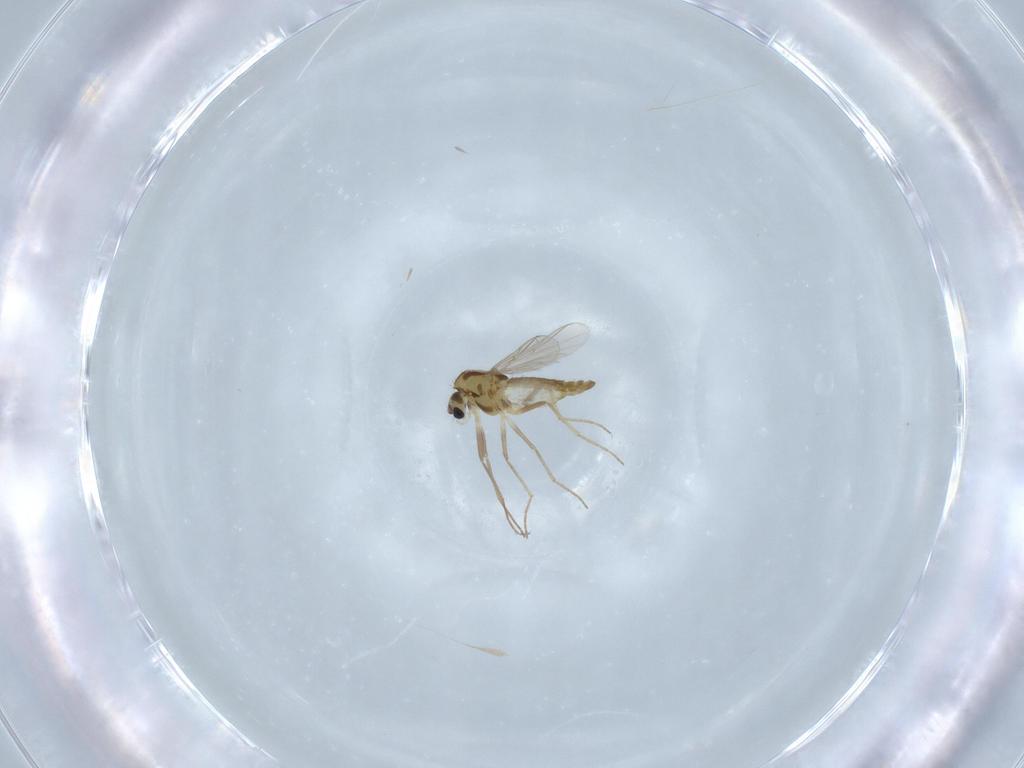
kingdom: Animalia
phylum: Arthropoda
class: Insecta
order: Diptera
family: Chironomidae
